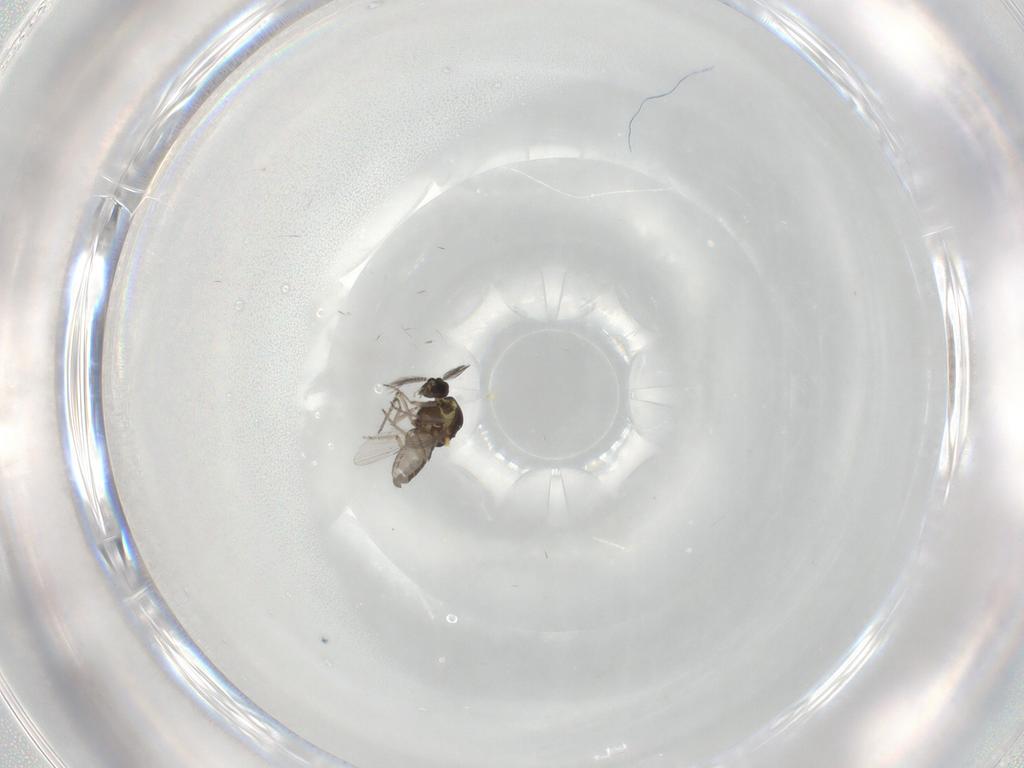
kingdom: Animalia
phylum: Arthropoda
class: Insecta
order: Diptera
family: Ceratopogonidae
